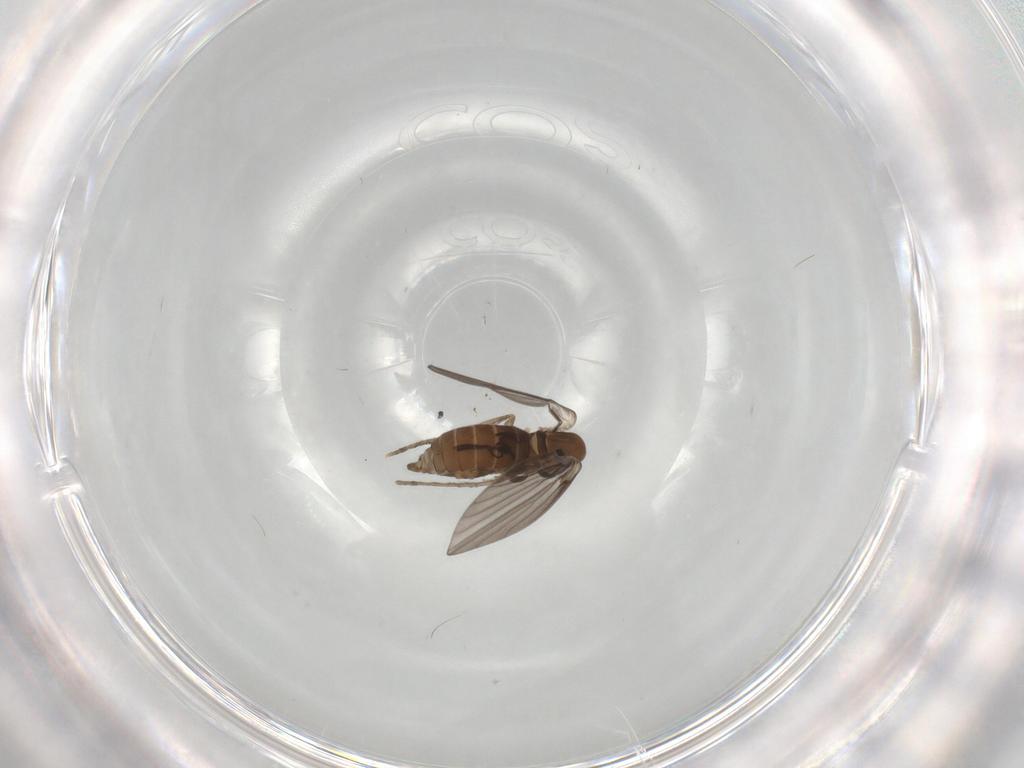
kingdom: Animalia
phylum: Arthropoda
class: Insecta
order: Diptera
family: Psychodidae
